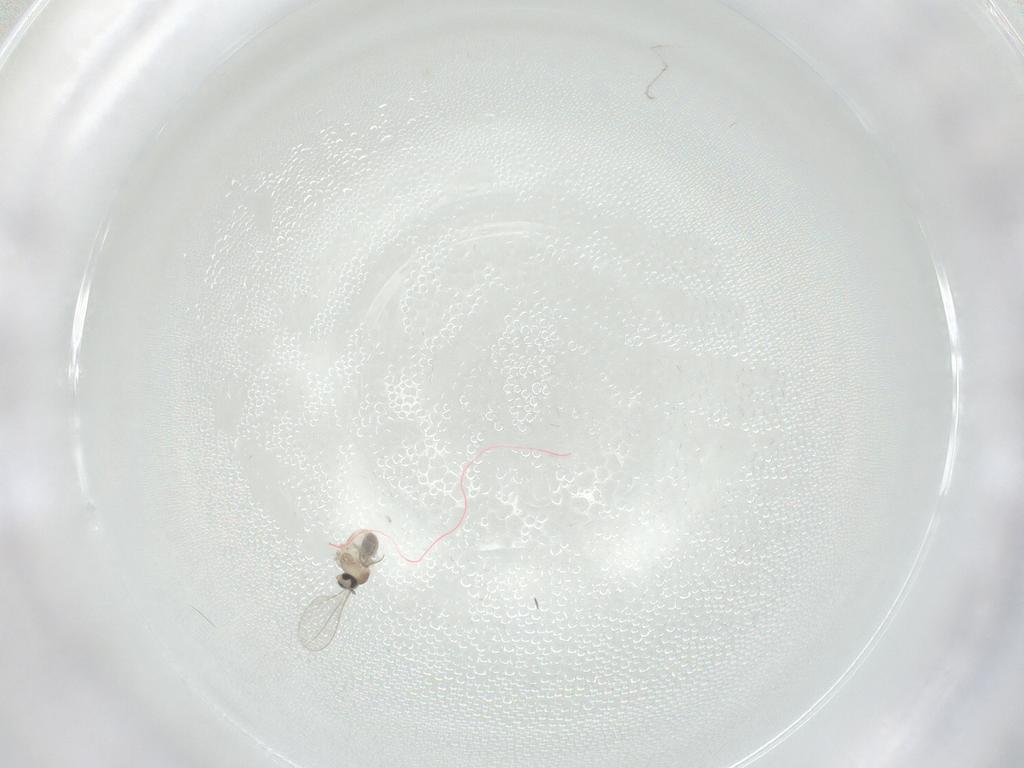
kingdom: Animalia
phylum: Arthropoda
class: Insecta
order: Diptera
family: Cecidomyiidae
